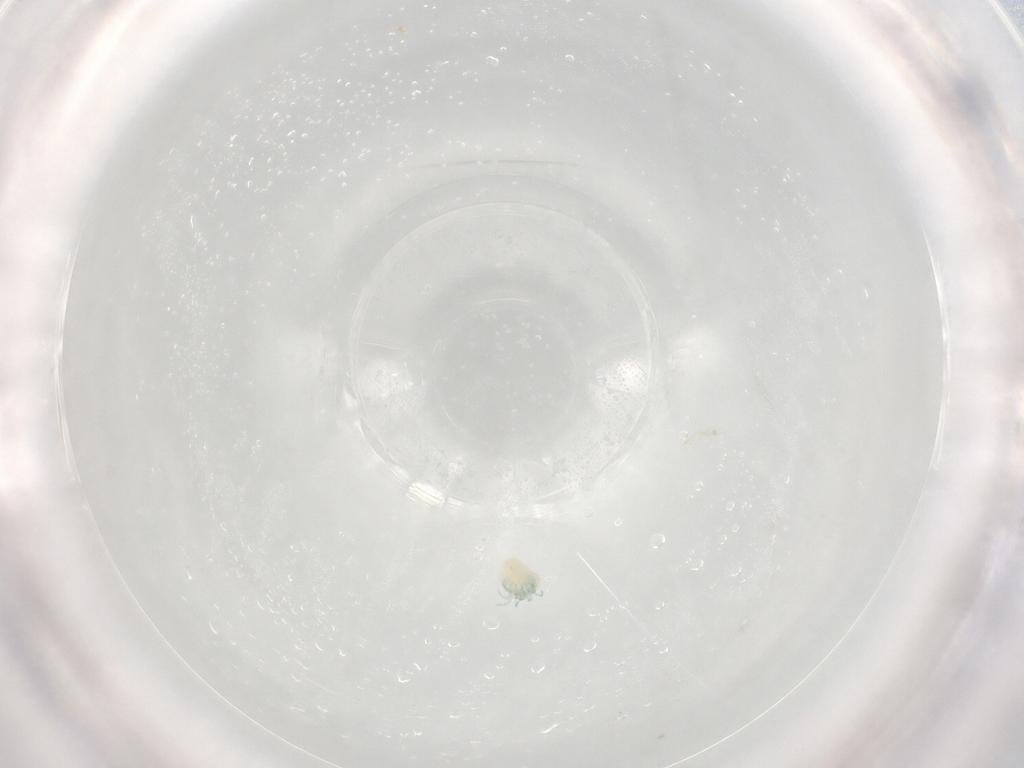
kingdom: Animalia
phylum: Arthropoda
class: Arachnida
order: Trombidiformes
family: Arrenuridae
